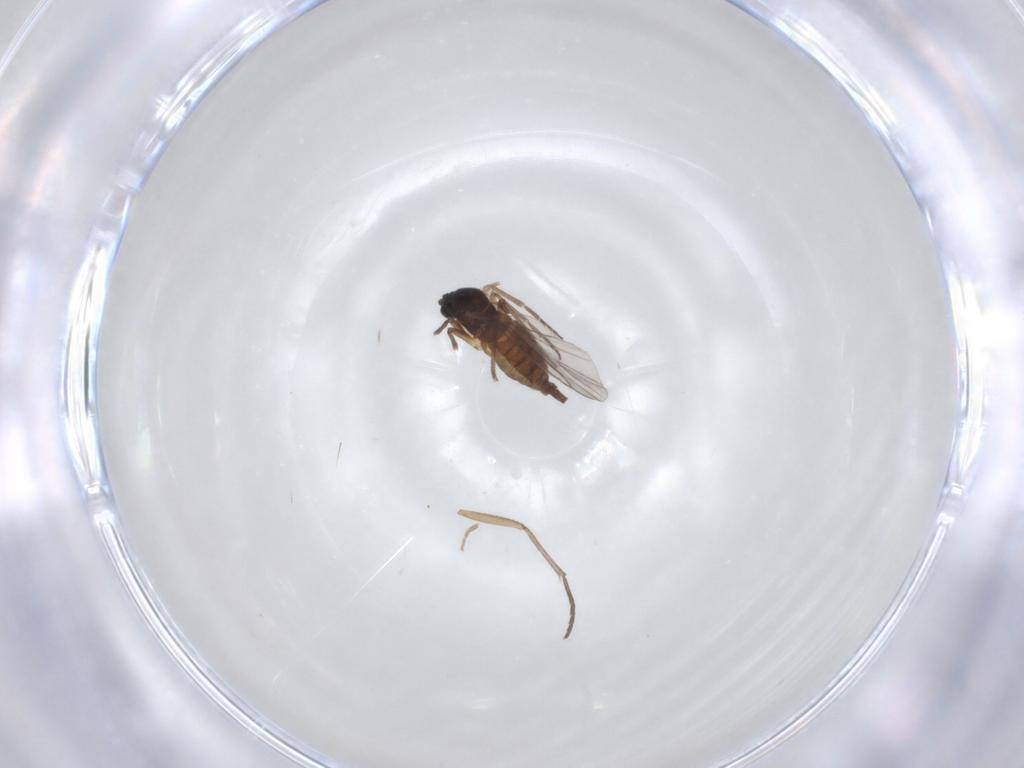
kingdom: Animalia
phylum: Arthropoda
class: Insecta
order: Diptera
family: Sciaridae
